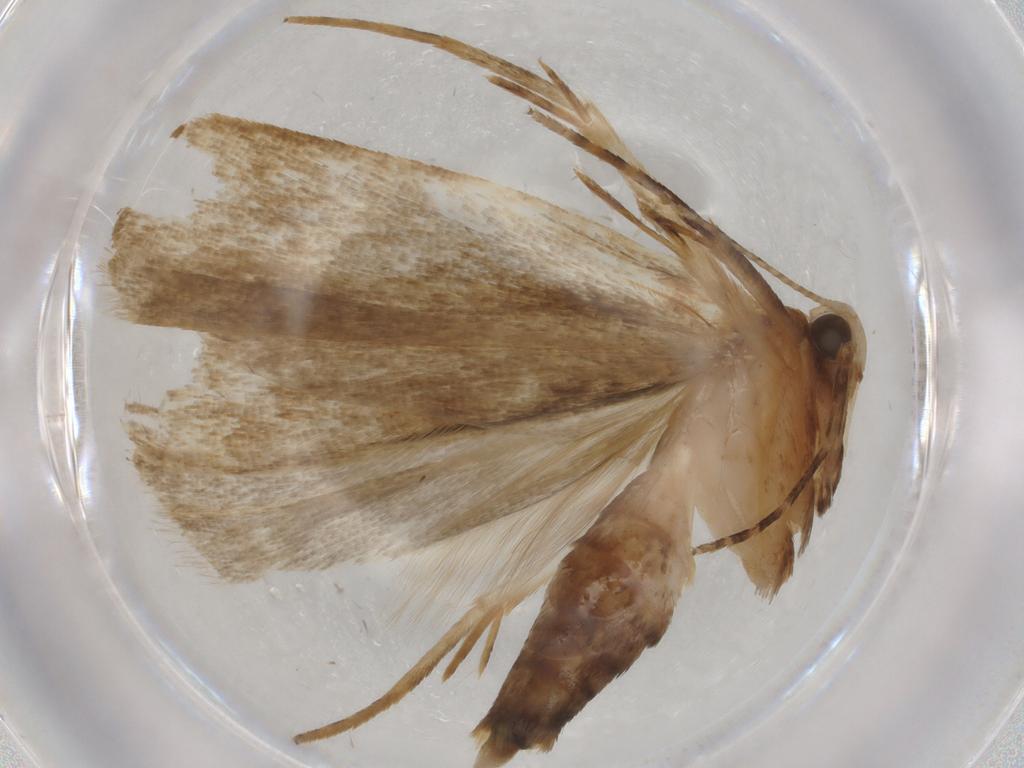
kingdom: Animalia
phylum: Arthropoda
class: Insecta
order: Lepidoptera
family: Gelechiidae
